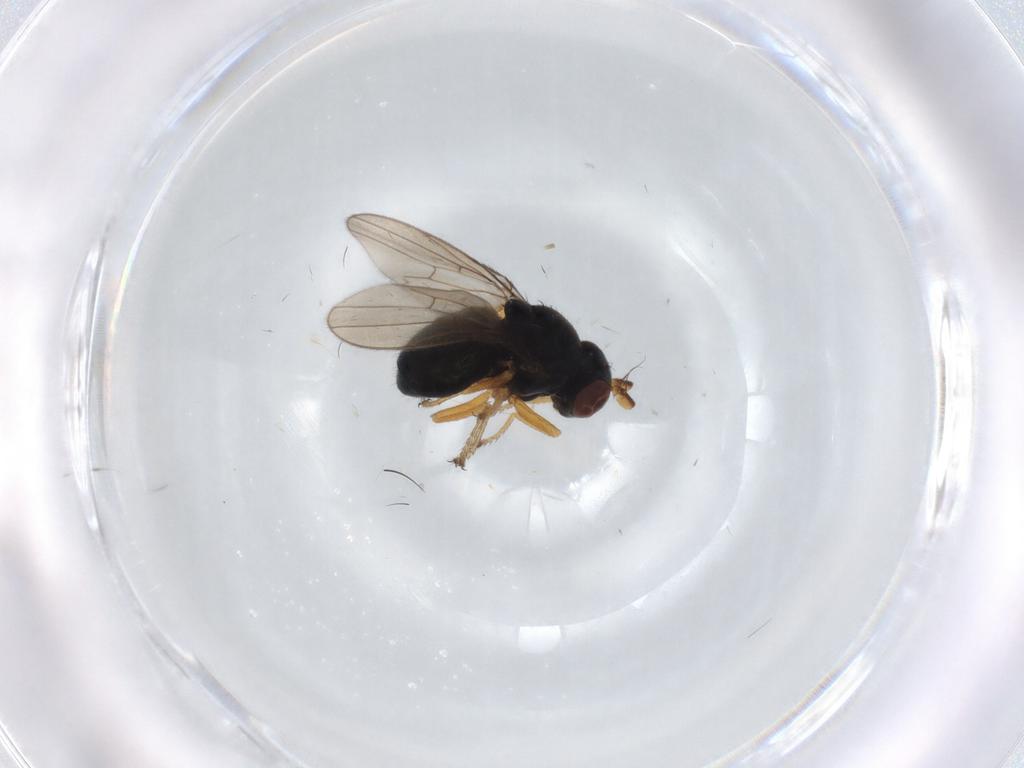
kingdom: Animalia
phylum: Arthropoda
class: Insecta
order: Diptera
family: Ephydridae
